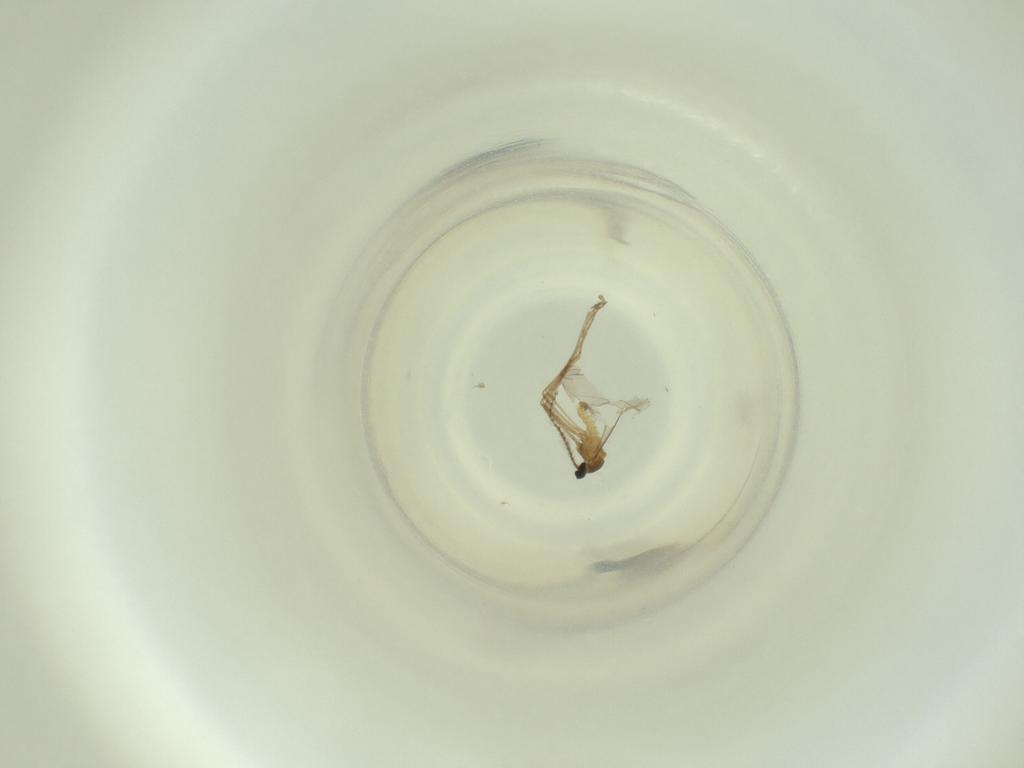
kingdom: Animalia
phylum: Arthropoda
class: Insecta
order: Diptera
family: Cecidomyiidae
